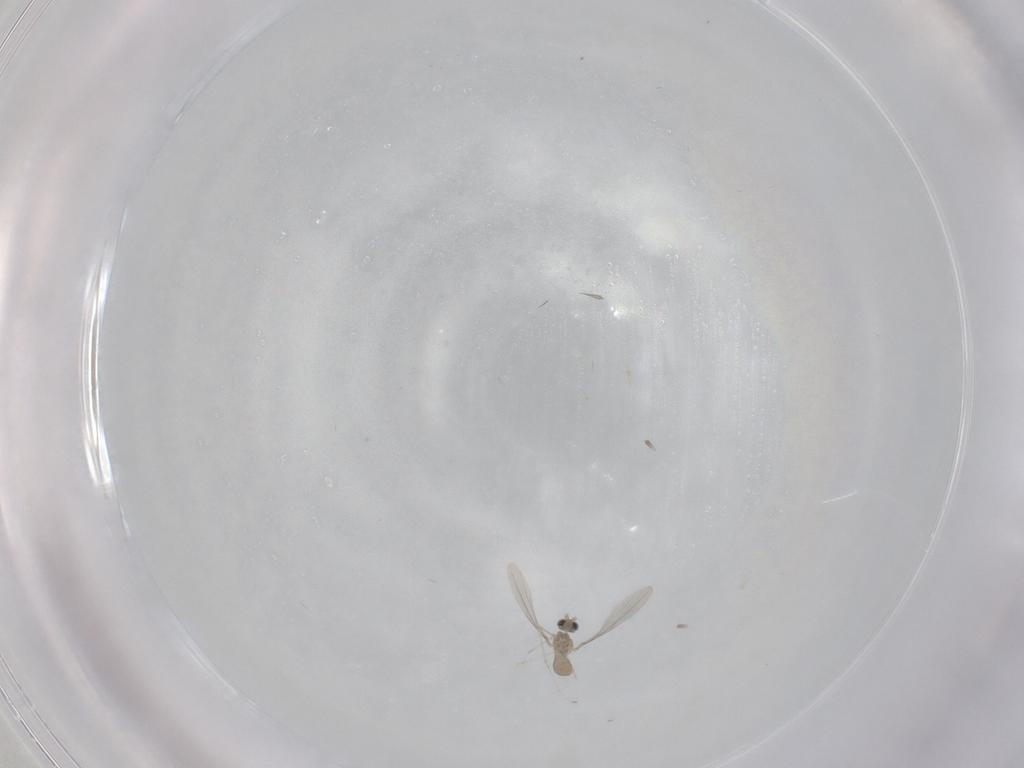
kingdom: Animalia
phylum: Arthropoda
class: Insecta
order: Diptera
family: Cecidomyiidae
